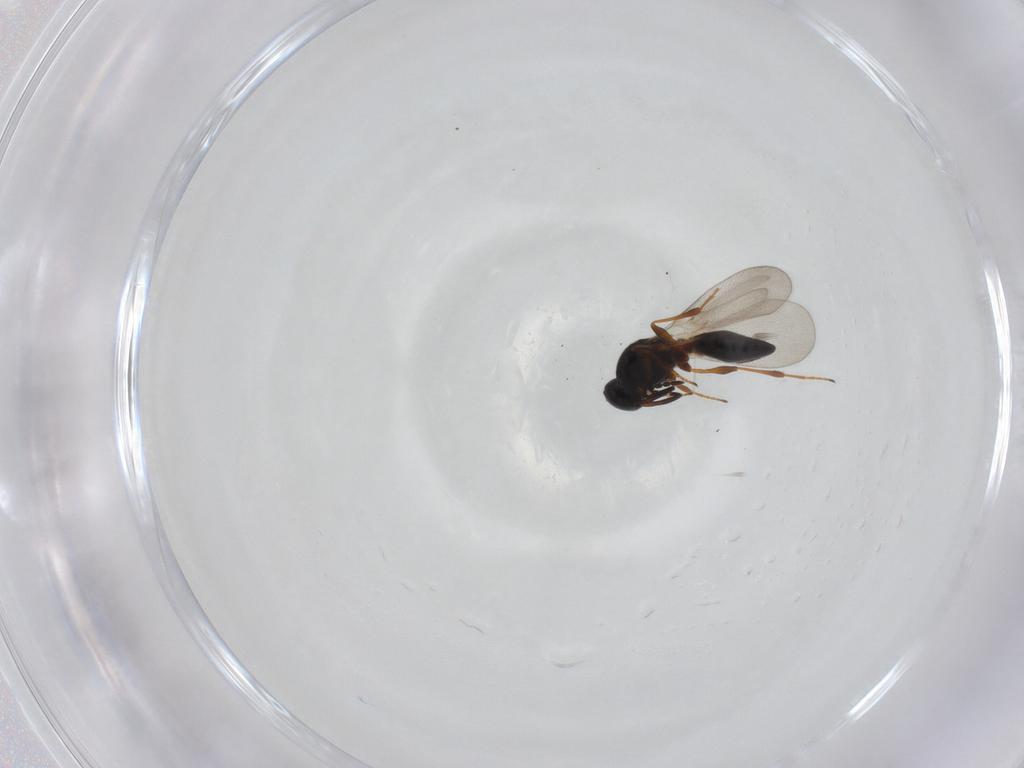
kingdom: Animalia
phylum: Arthropoda
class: Insecta
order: Hymenoptera
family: Platygastridae
